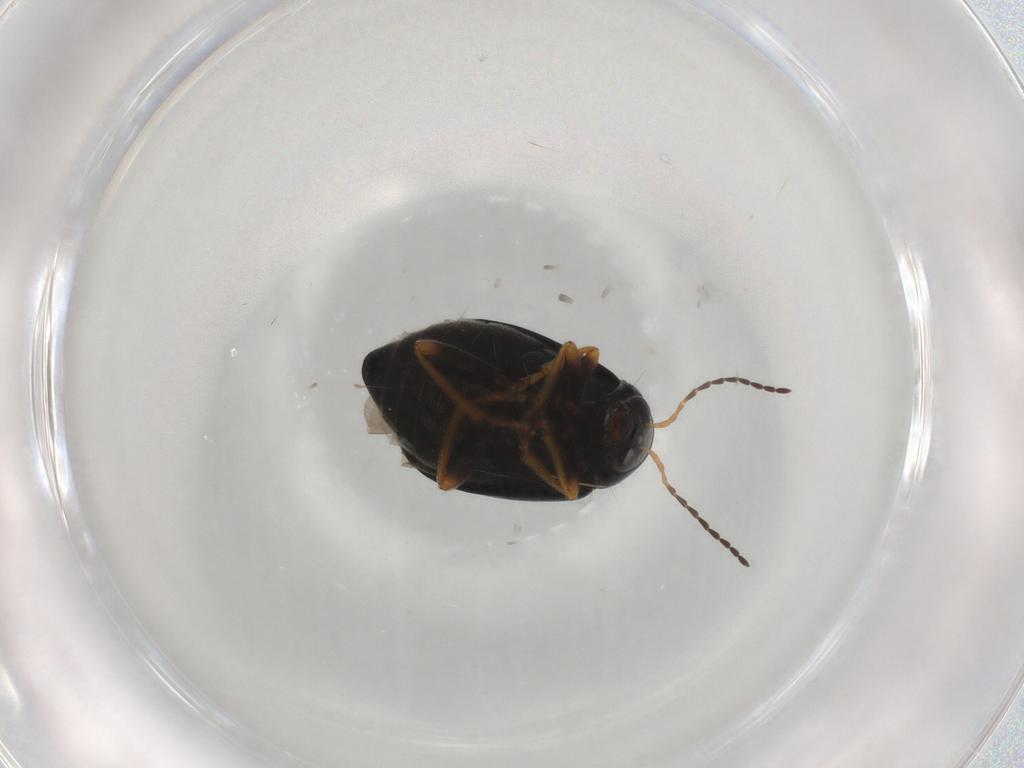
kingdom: Animalia
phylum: Arthropoda
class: Insecta
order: Coleoptera
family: Chrysomelidae
